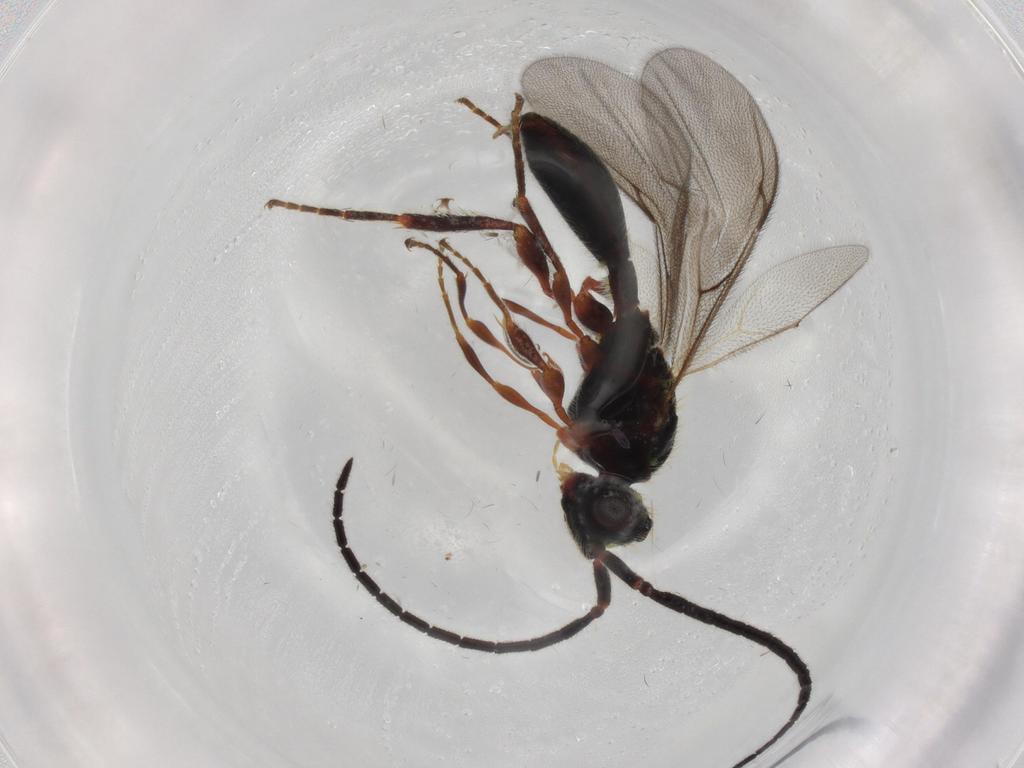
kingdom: Animalia
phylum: Arthropoda
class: Insecta
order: Hymenoptera
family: Diapriidae
